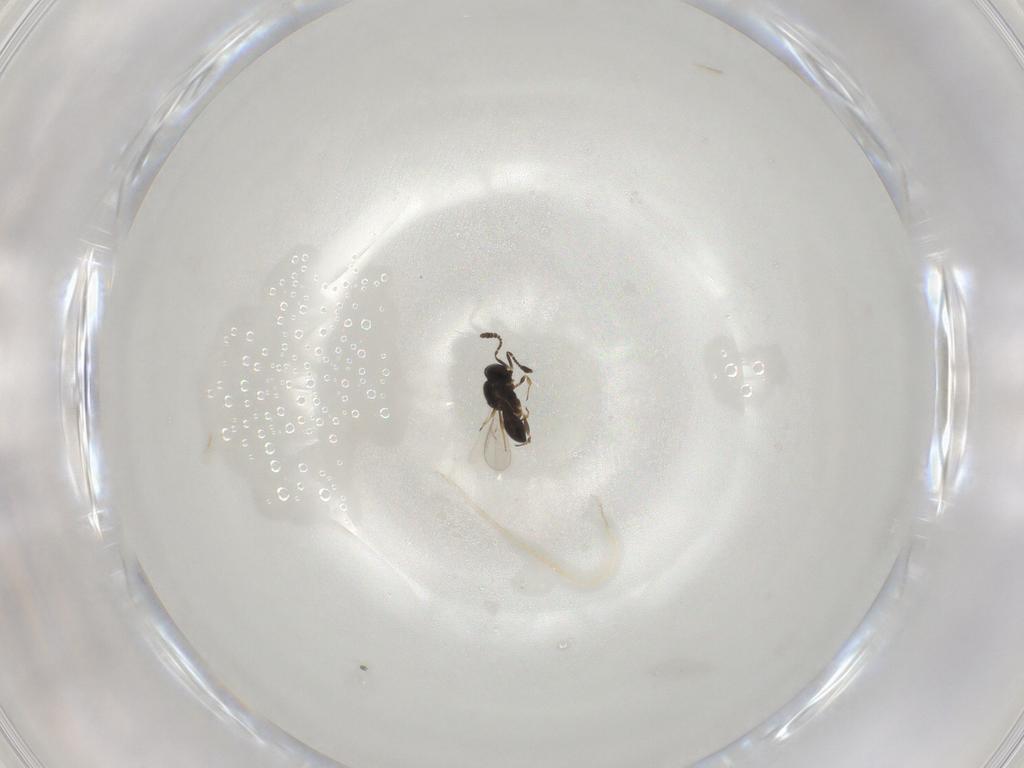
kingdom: Animalia
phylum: Arthropoda
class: Insecta
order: Hymenoptera
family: Scelionidae
